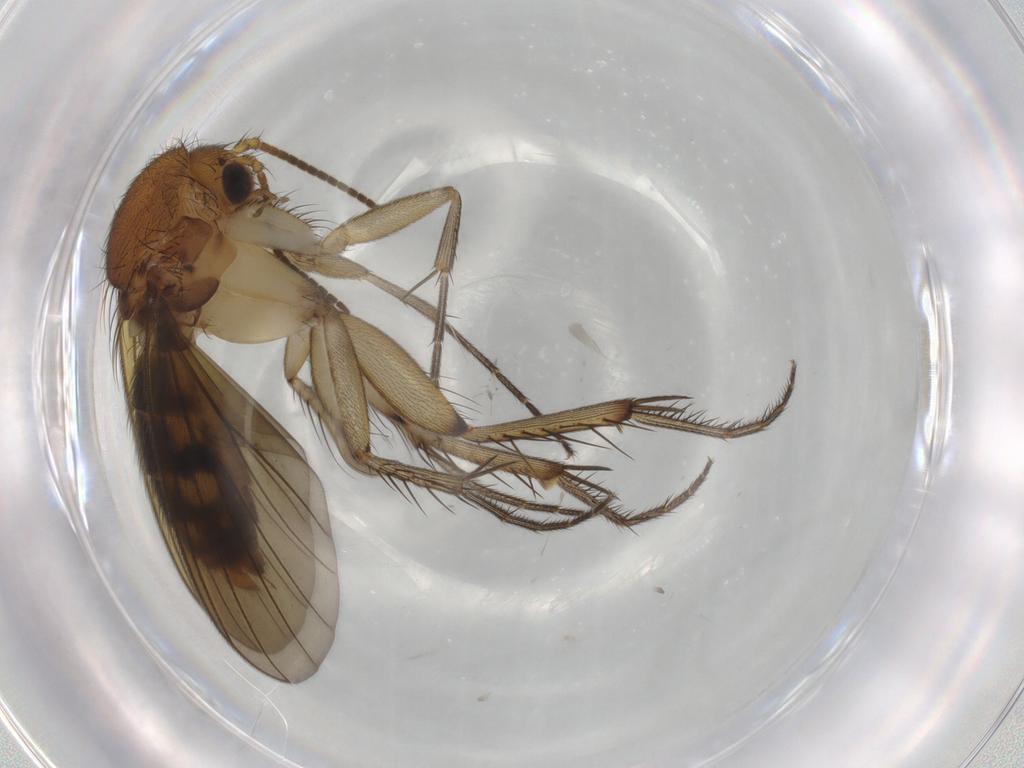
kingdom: Animalia
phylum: Arthropoda
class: Insecta
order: Diptera
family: Mycetophilidae
